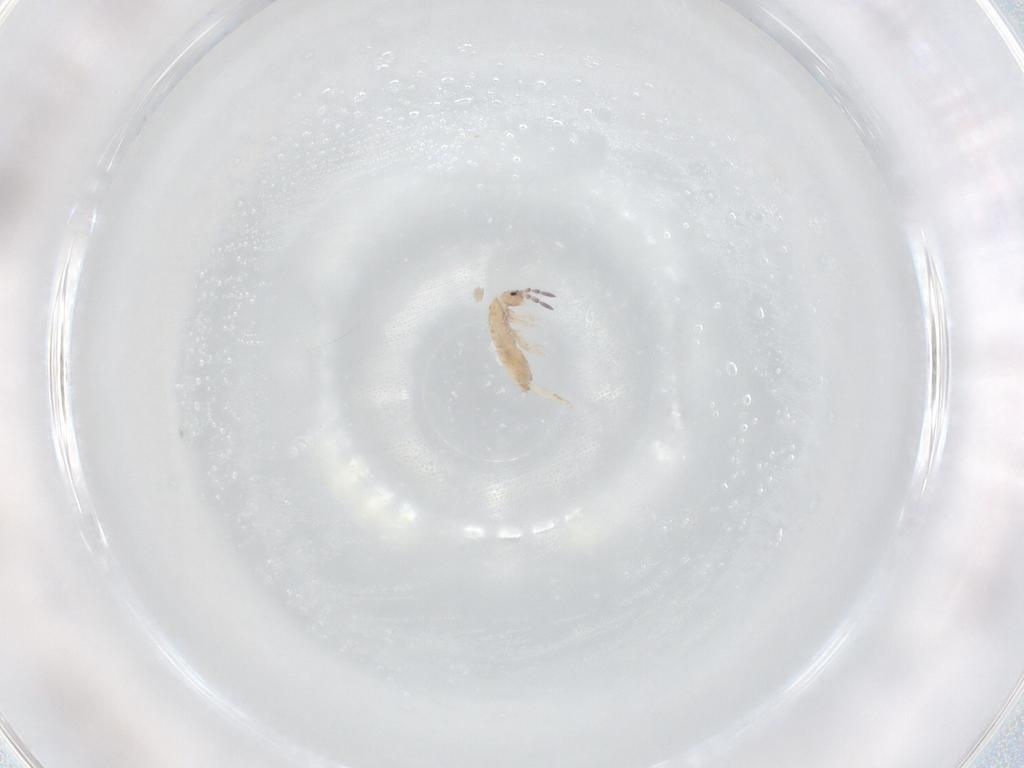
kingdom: Animalia
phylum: Arthropoda
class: Collembola
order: Entomobryomorpha
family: Entomobryidae
